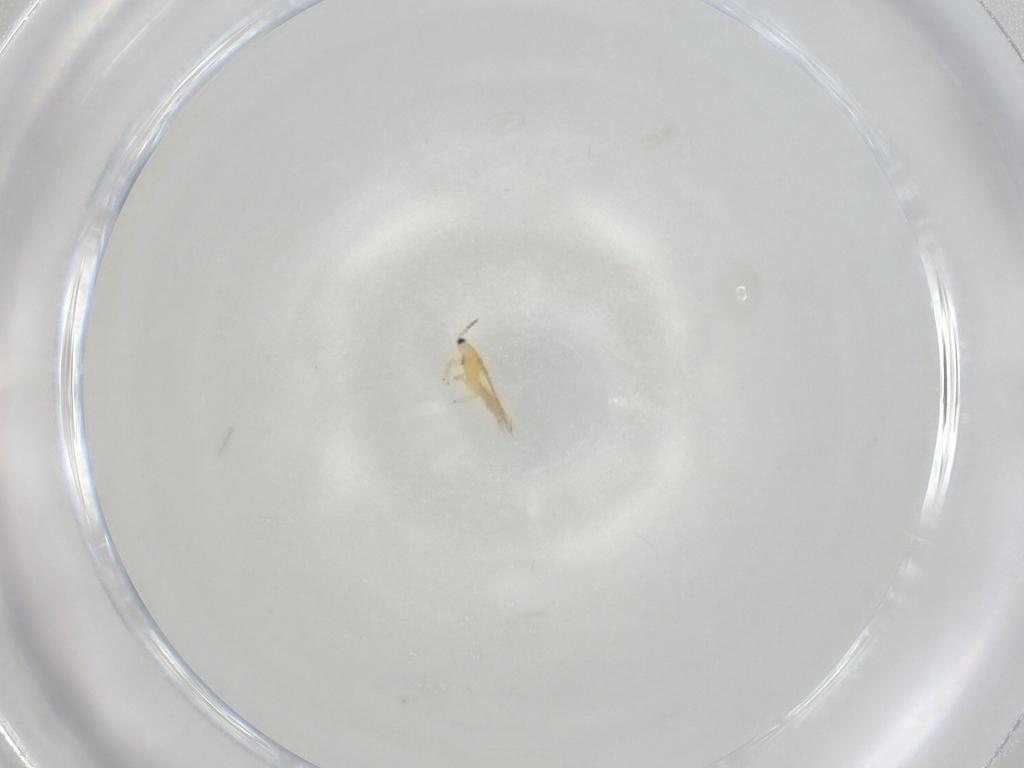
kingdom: Animalia
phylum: Arthropoda
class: Insecta
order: Thysanoptera
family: Thripidae
